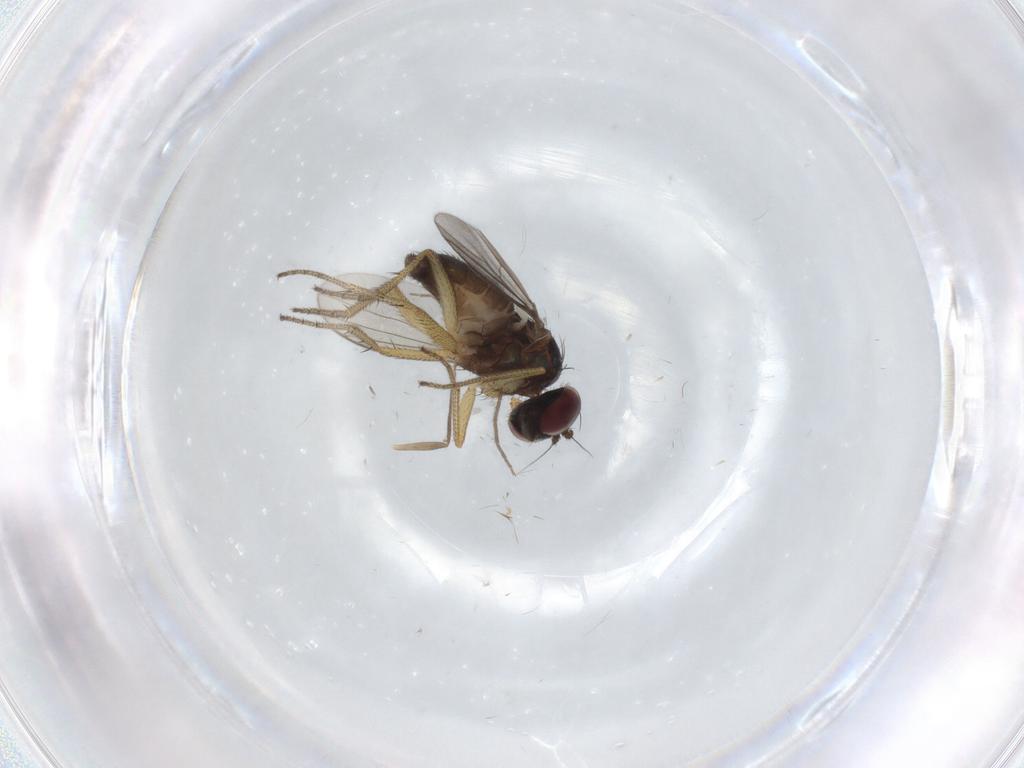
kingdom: Animalia
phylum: Arthropoda
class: Insecta
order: Diptera
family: Dolichopodidae
